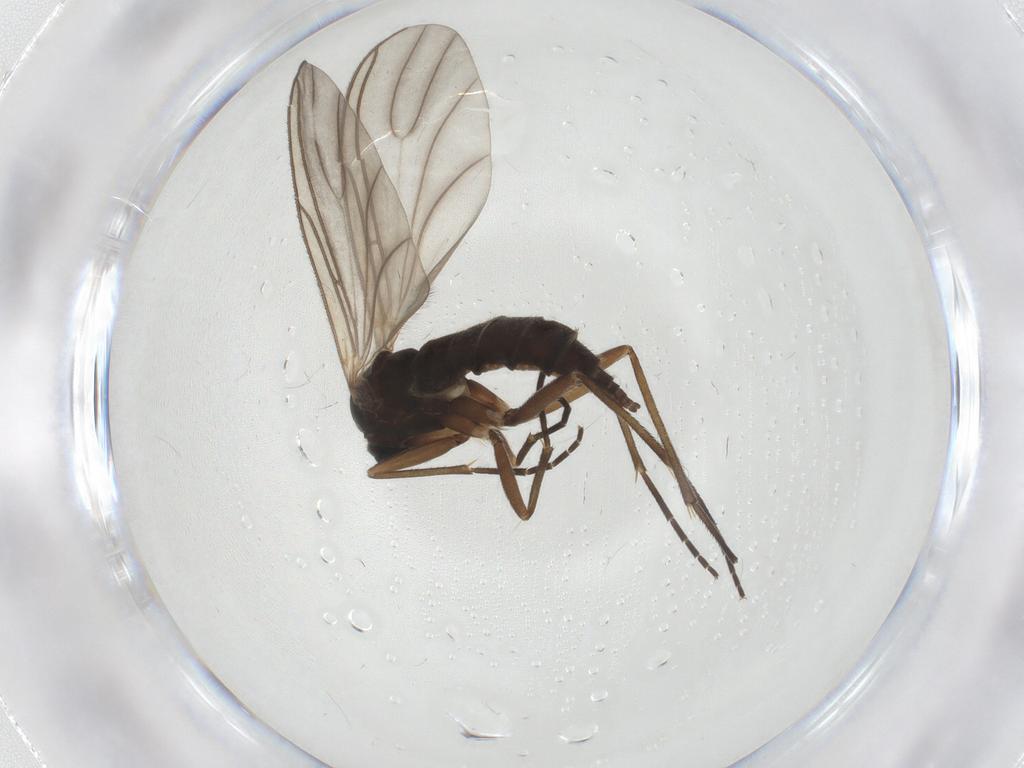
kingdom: Animalia
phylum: Arthropoda
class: Insecta
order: Diptera
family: Sciaridae
